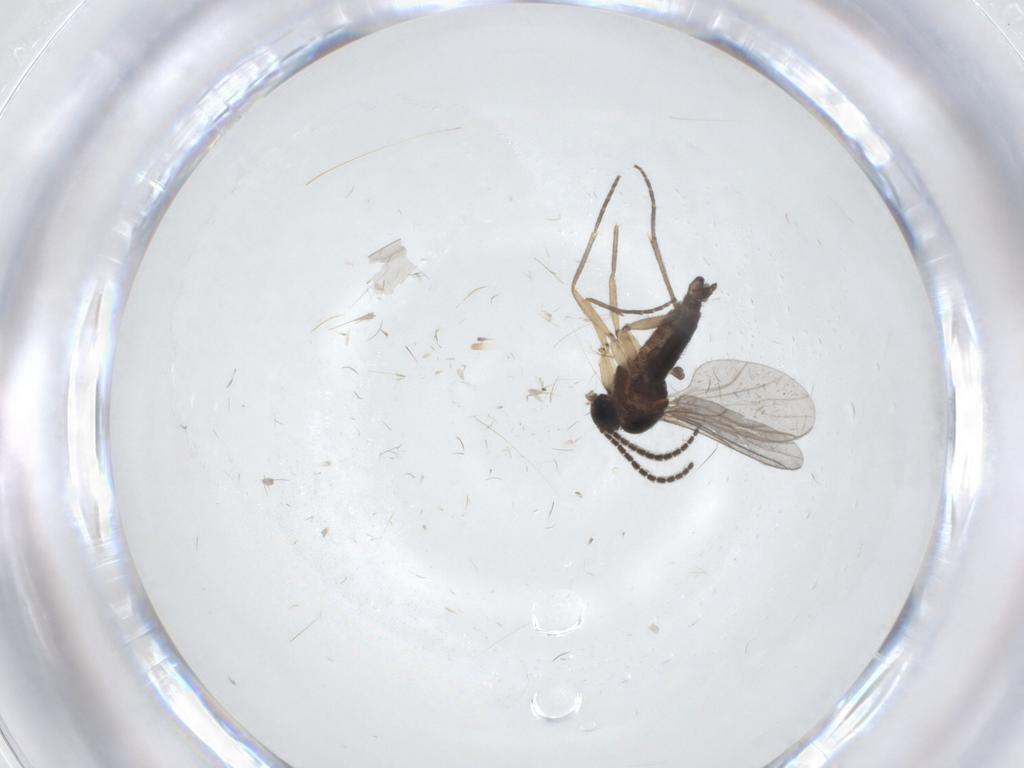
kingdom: Animalia
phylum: Arthropoda
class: Insecta
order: Diptera
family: Sciaridae
